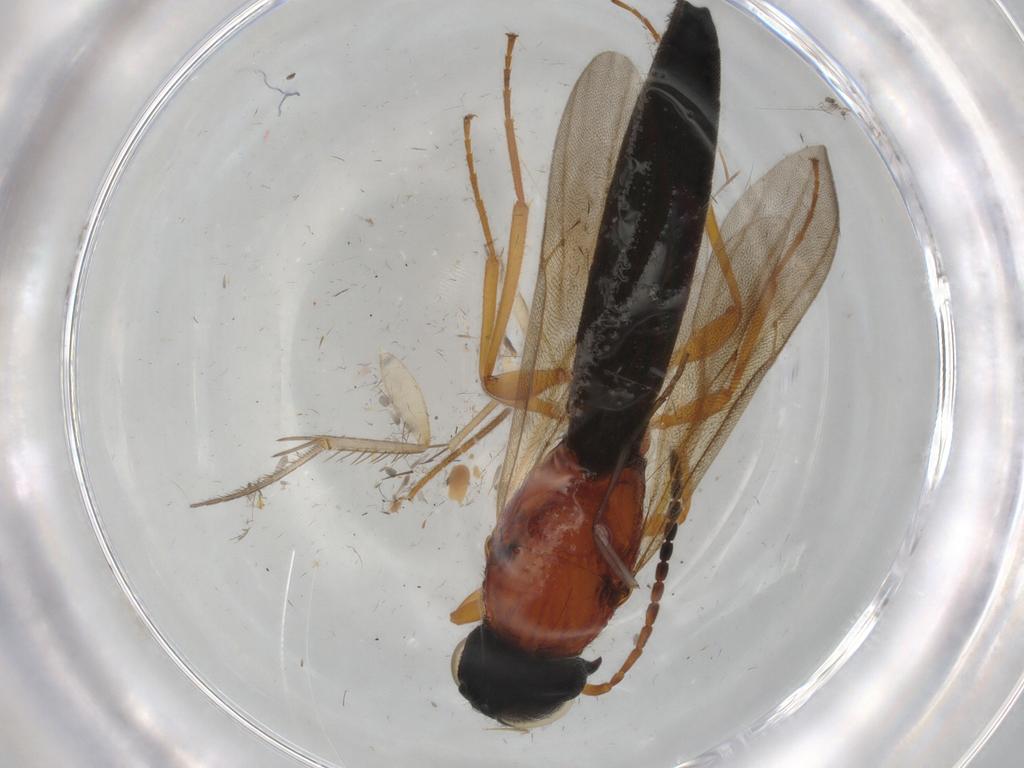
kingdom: Animalia
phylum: Arthropoda
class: Insecta
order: Hymenoptera
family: Formicidae
